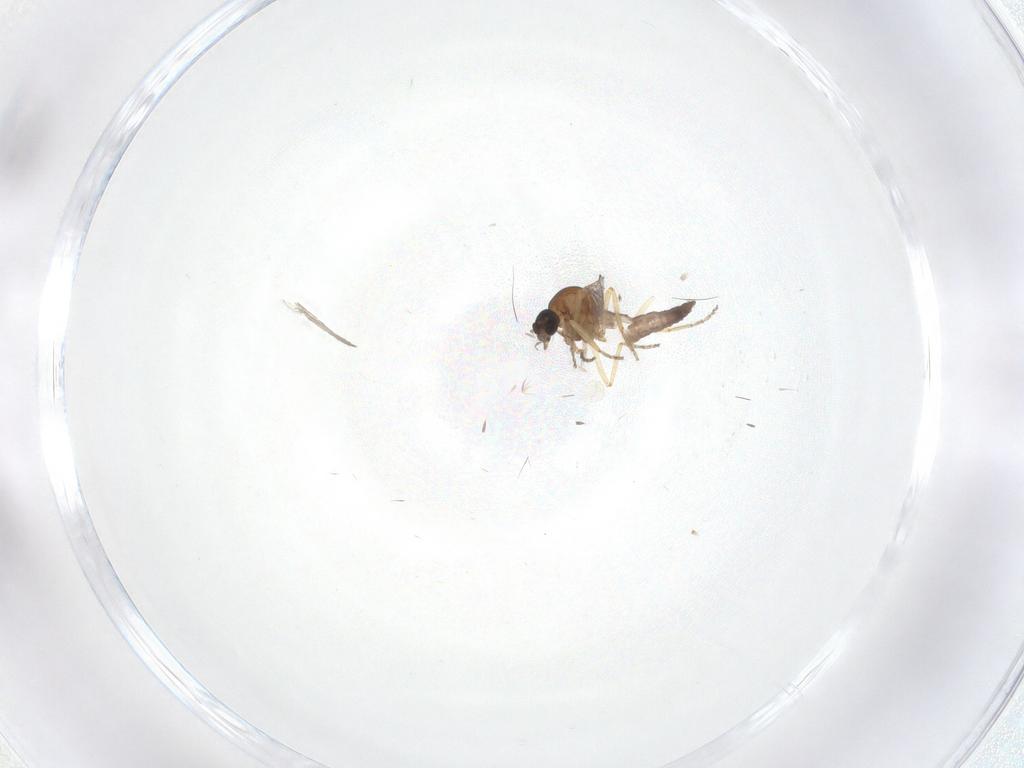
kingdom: Animalia
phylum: Arthropoda
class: Insecta
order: Diptera
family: Ceratopogonidae
